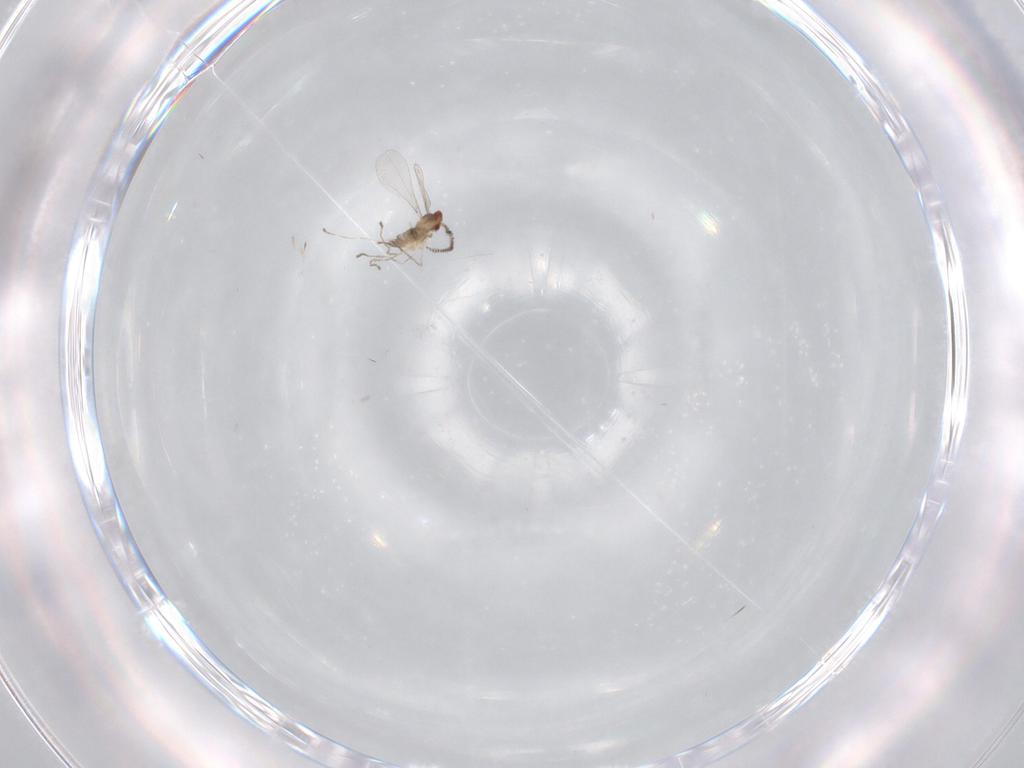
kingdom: Animalia
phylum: Arthropoda
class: Insecta
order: Diptera
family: Cecidomyiidae
